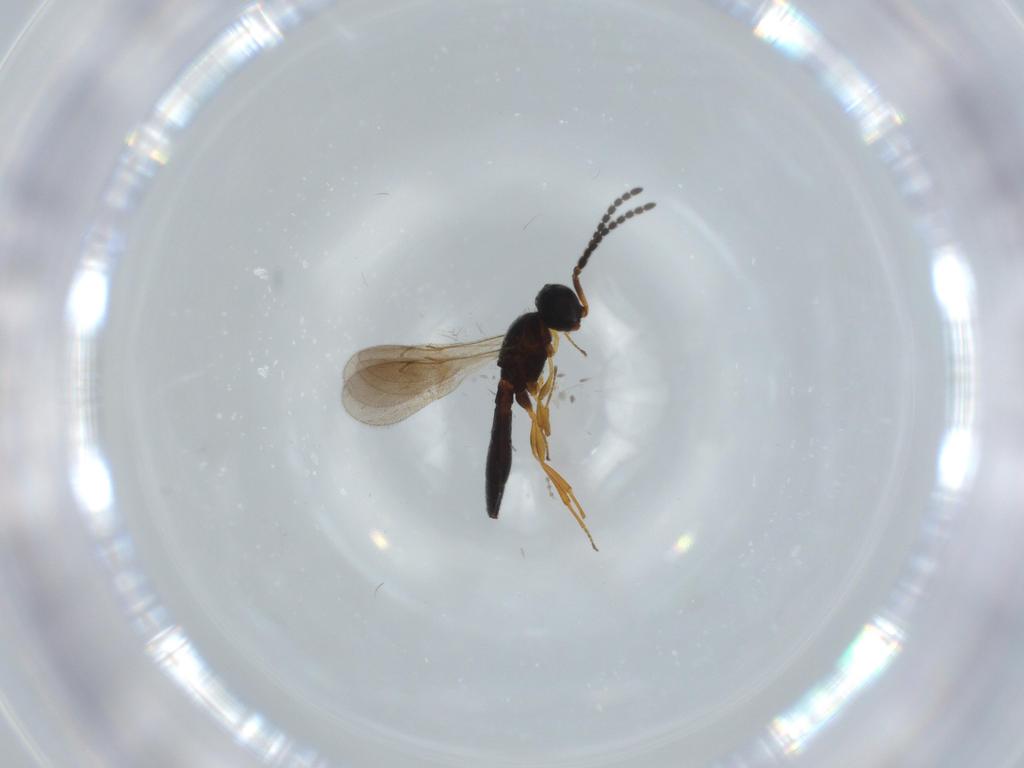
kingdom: Animalia
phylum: Arthropoda
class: Insecta
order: Hymenoptera
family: Scelionidae
